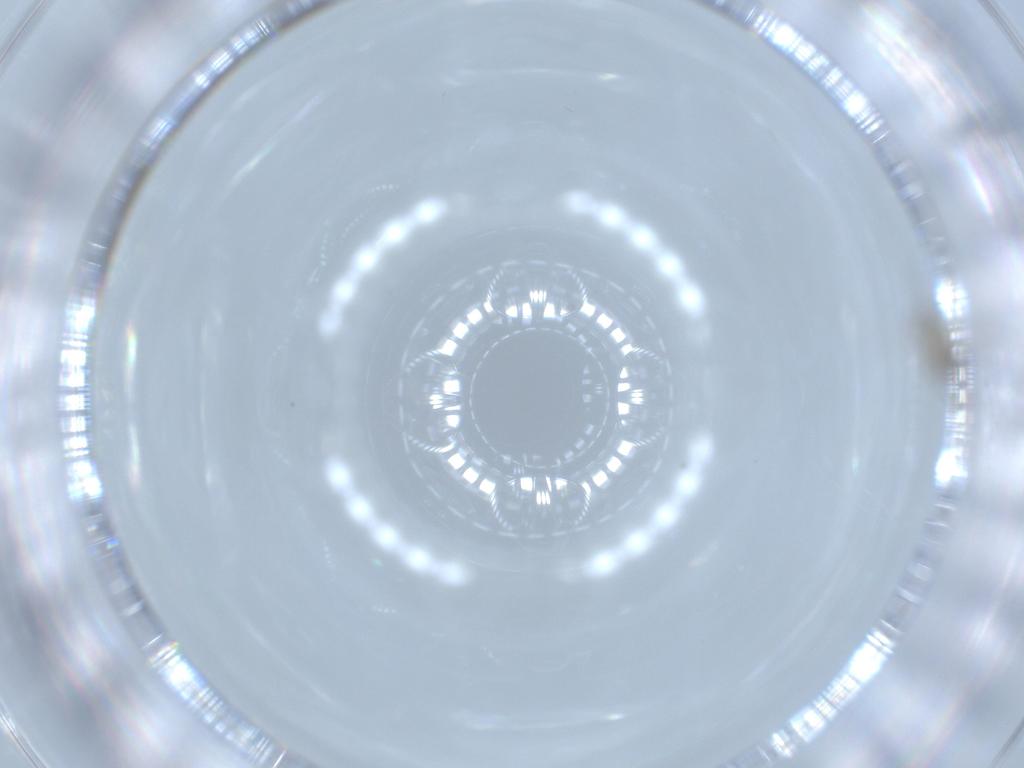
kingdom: Animalia
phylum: Arthropoda
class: Insecta
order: Diptera
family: Cecidomyiidae
